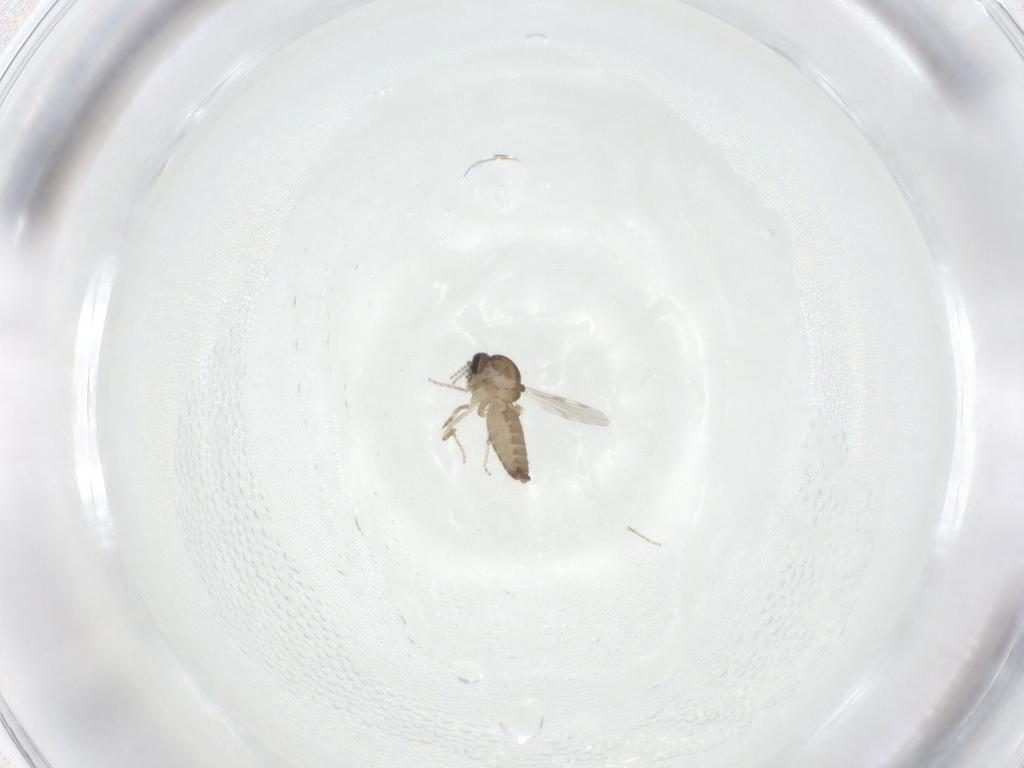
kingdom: Animalia
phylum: Arthropoda
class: Insecta
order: Diptera
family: Ceratopogonidae
